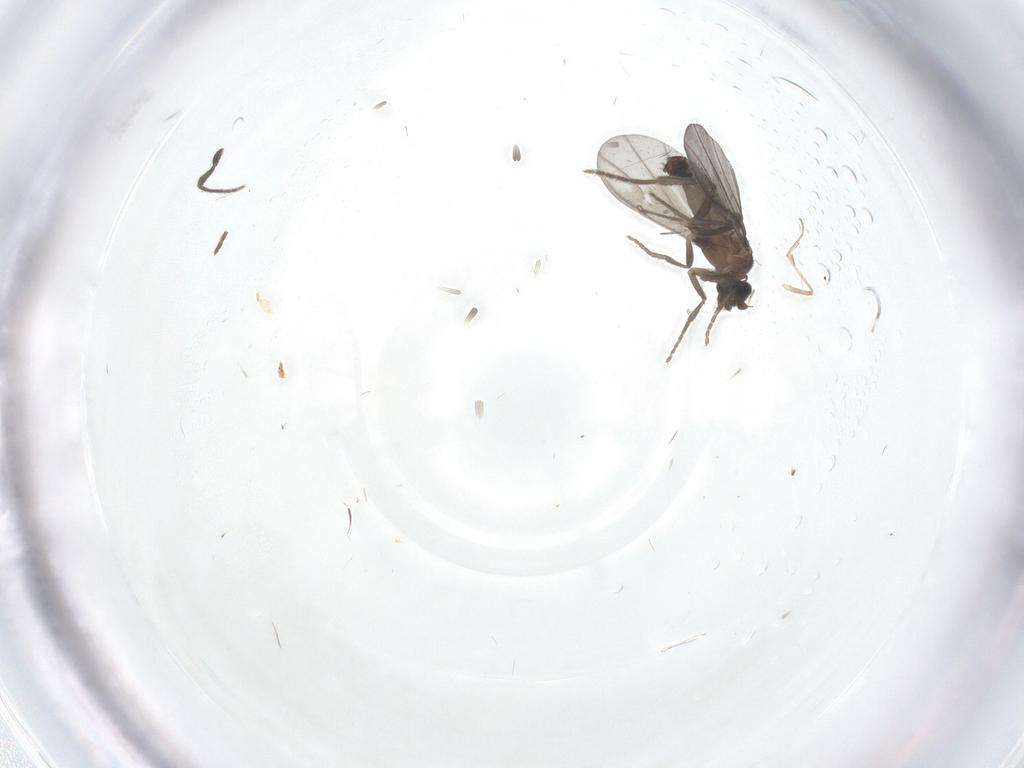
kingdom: Animalia
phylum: Arthropoda
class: Insecta
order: Diptera
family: Phoridae
